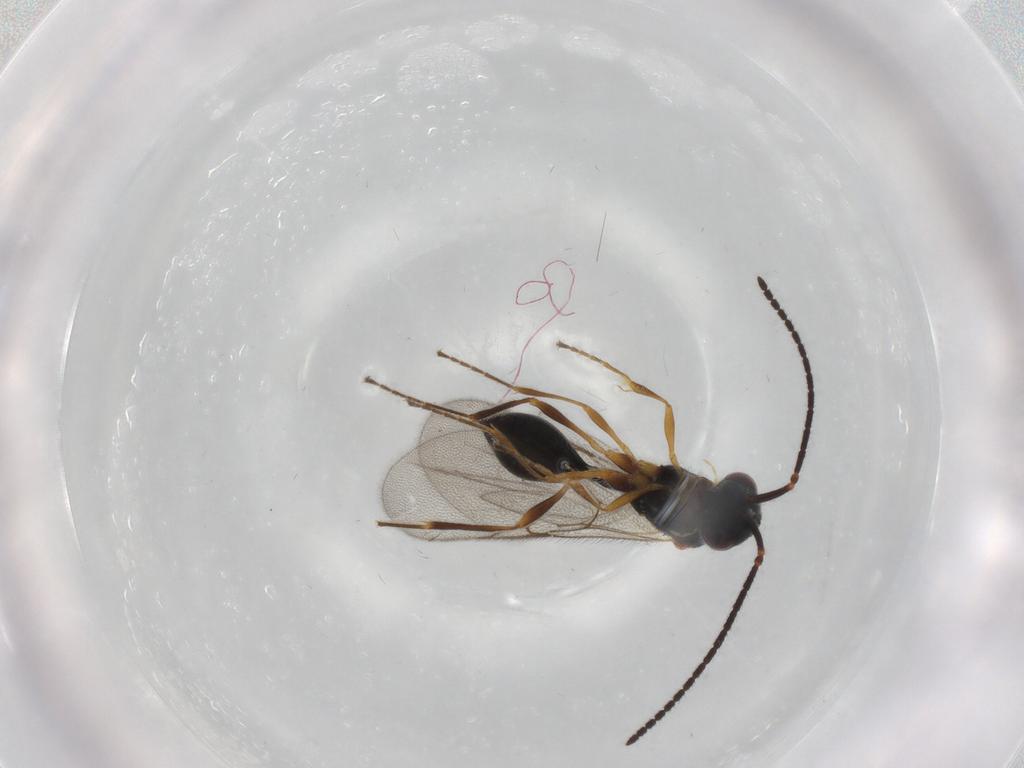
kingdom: Animalia
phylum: Arthropoda
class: Insecta
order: Hymenoptera
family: Diapriidae
